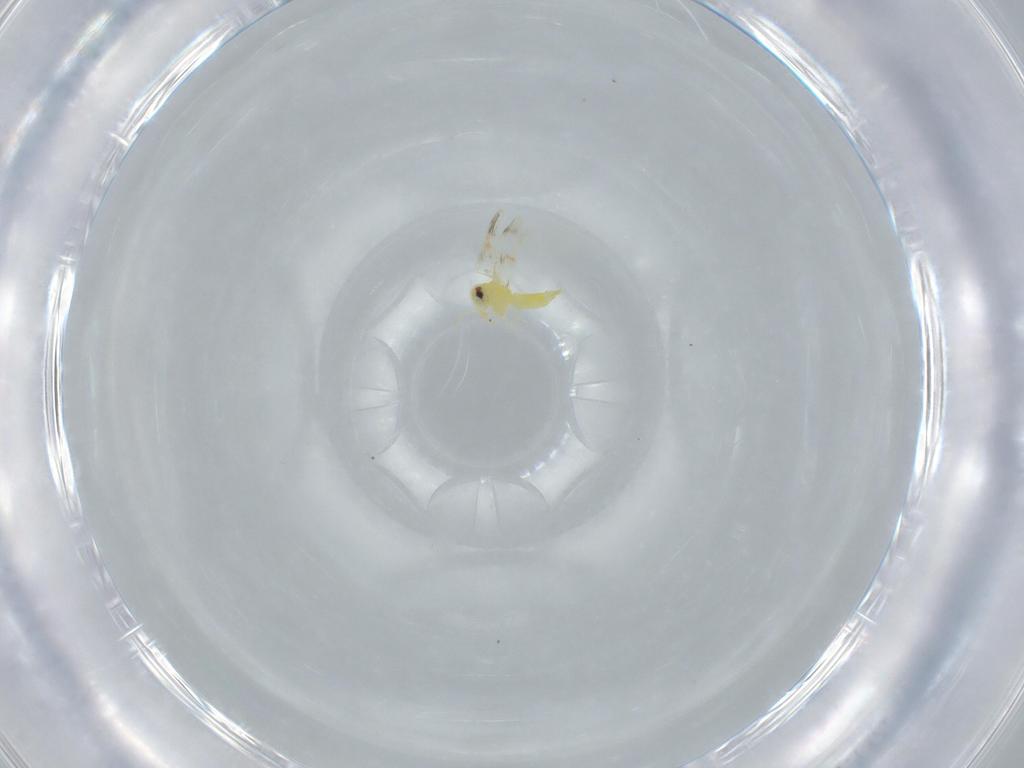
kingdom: Animalia
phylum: Arthropoda
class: Insecta
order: Hemiptera
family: Aleyrodidae
